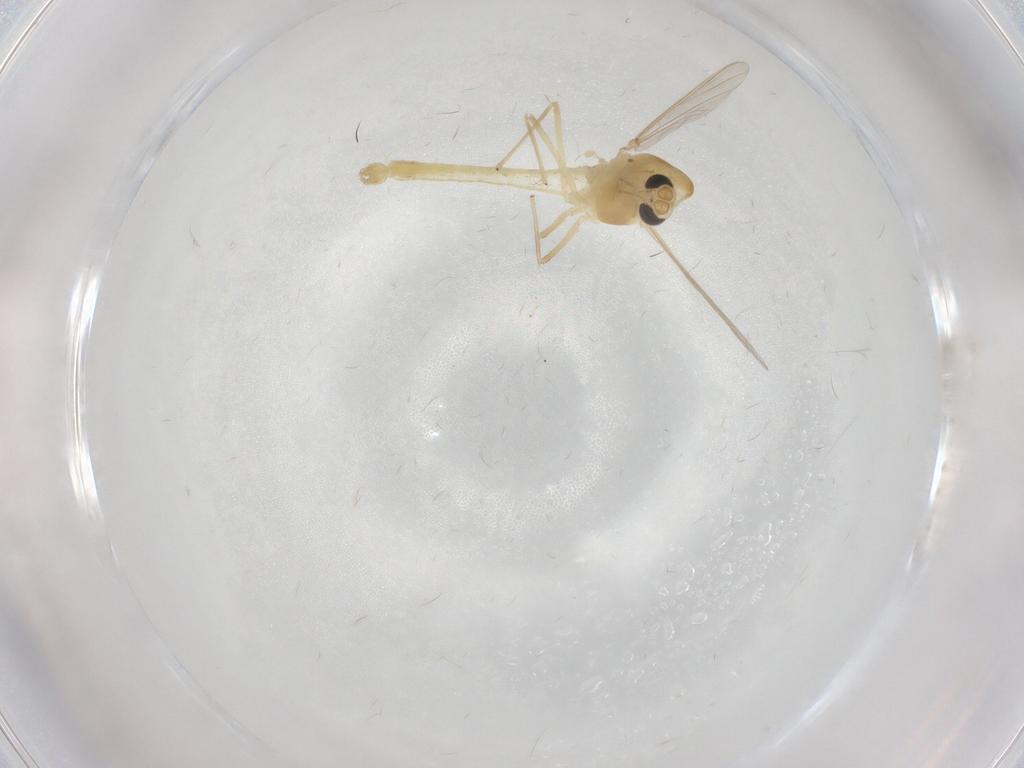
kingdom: Animalia
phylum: Arthropoda
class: Insecta
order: Diptera
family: Chironomidae
